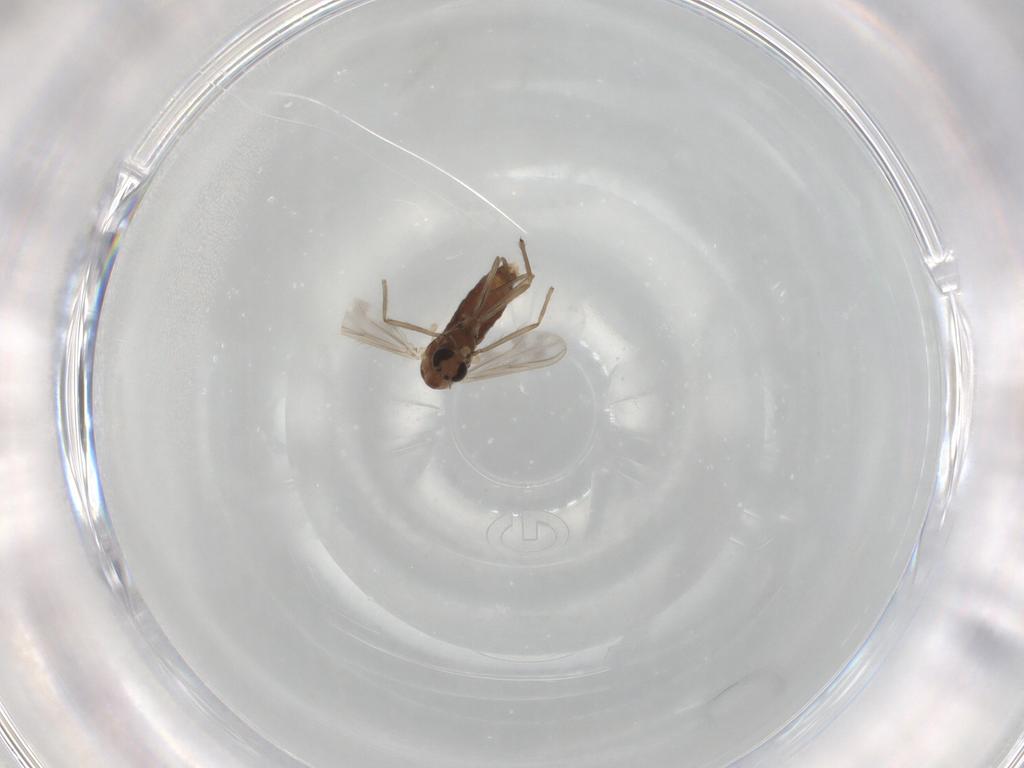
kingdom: Animalia
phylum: Arthropoda
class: Insecta
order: Diptera
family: Chironomidae
